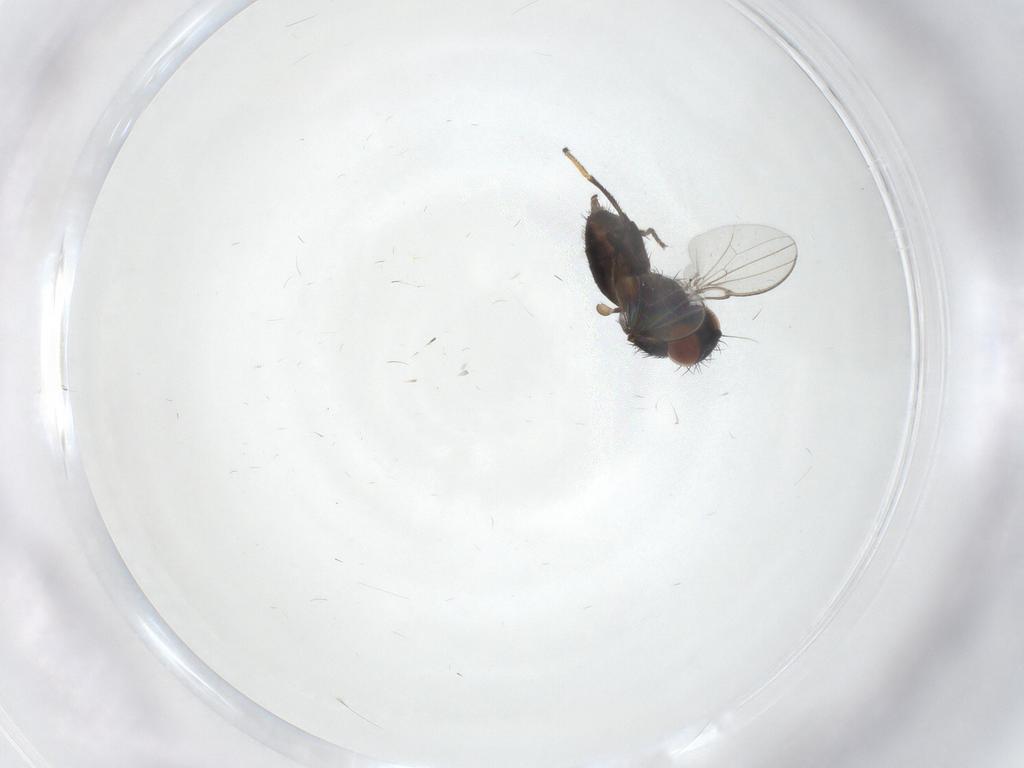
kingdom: Animalia
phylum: Arthropoda
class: Insecta
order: Diptera
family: Milichiidae
